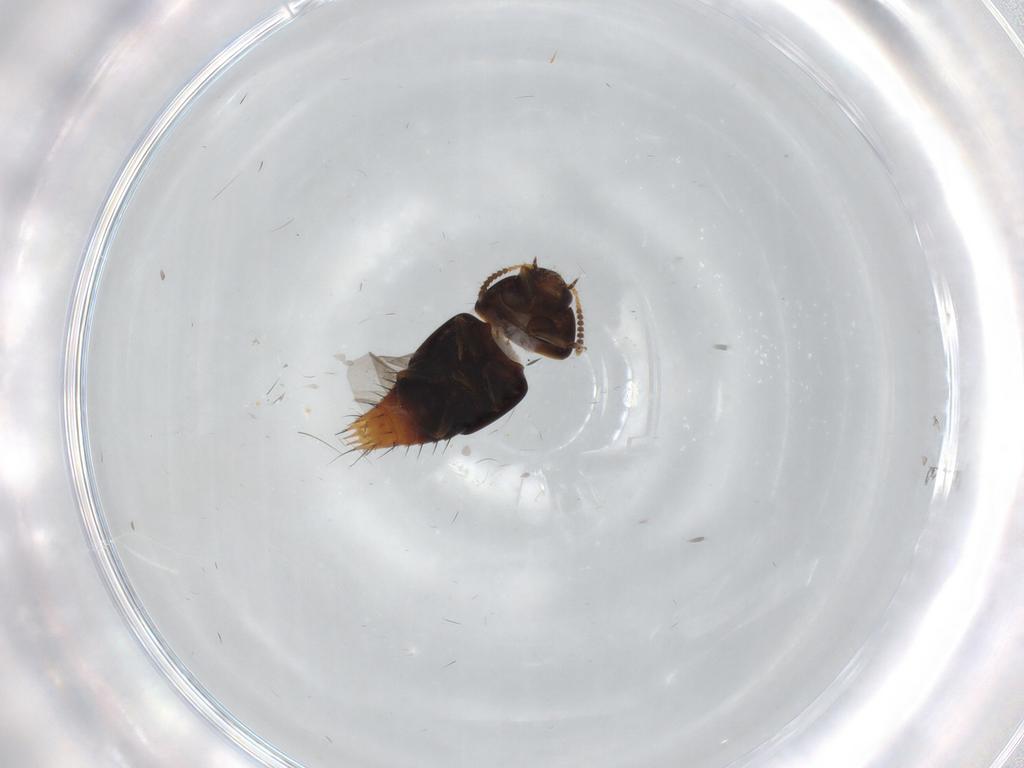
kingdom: Animalia
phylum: Arthropoda
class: Insecta
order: Coleoptera
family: Staphylinidae
